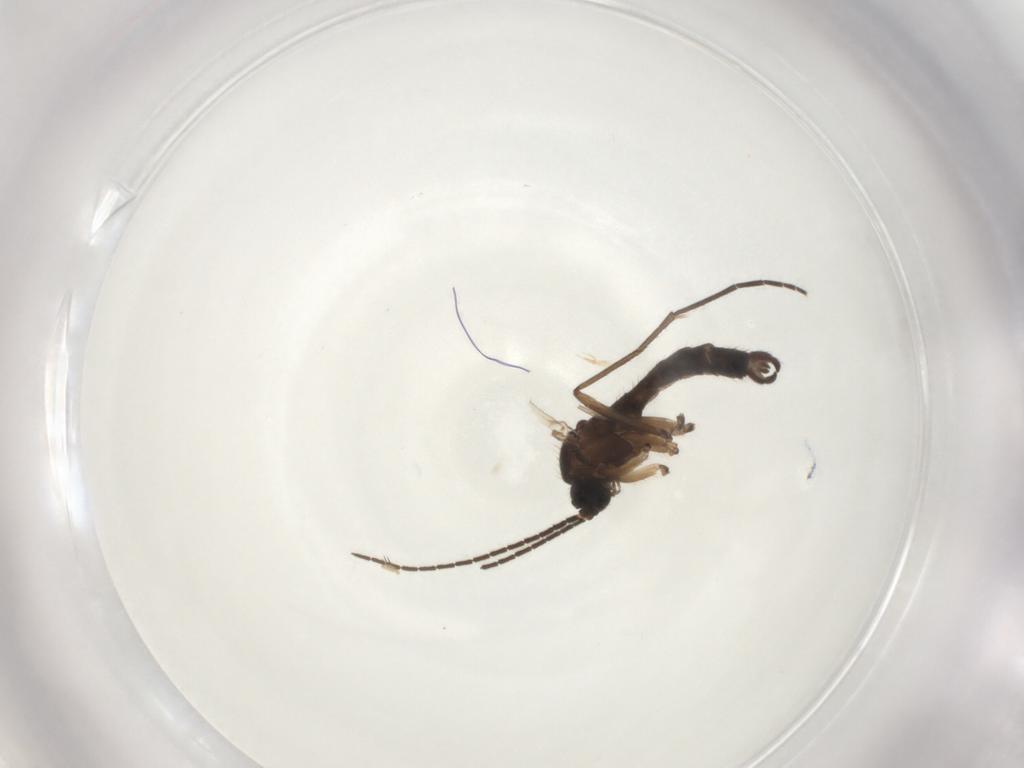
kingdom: Animalia
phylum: Arthropoda
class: Insecta
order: Diptera
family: Sciaridae
